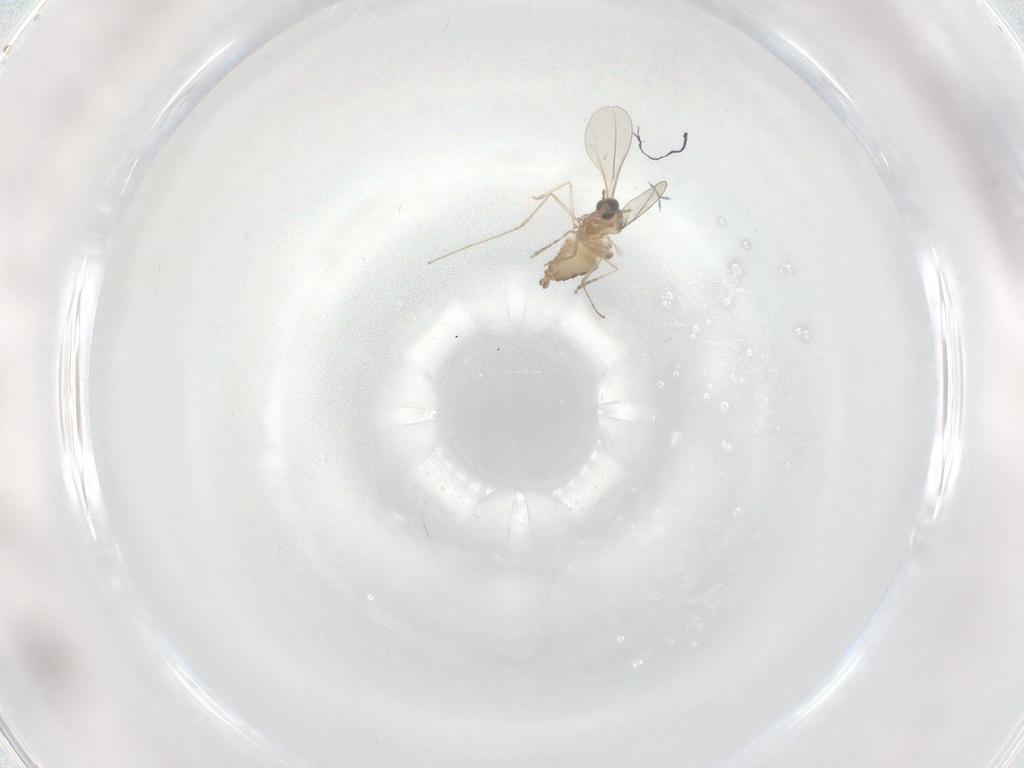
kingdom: Animalia
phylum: Arthropoda
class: Insecta
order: Diptera
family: Cecidomyiidae
